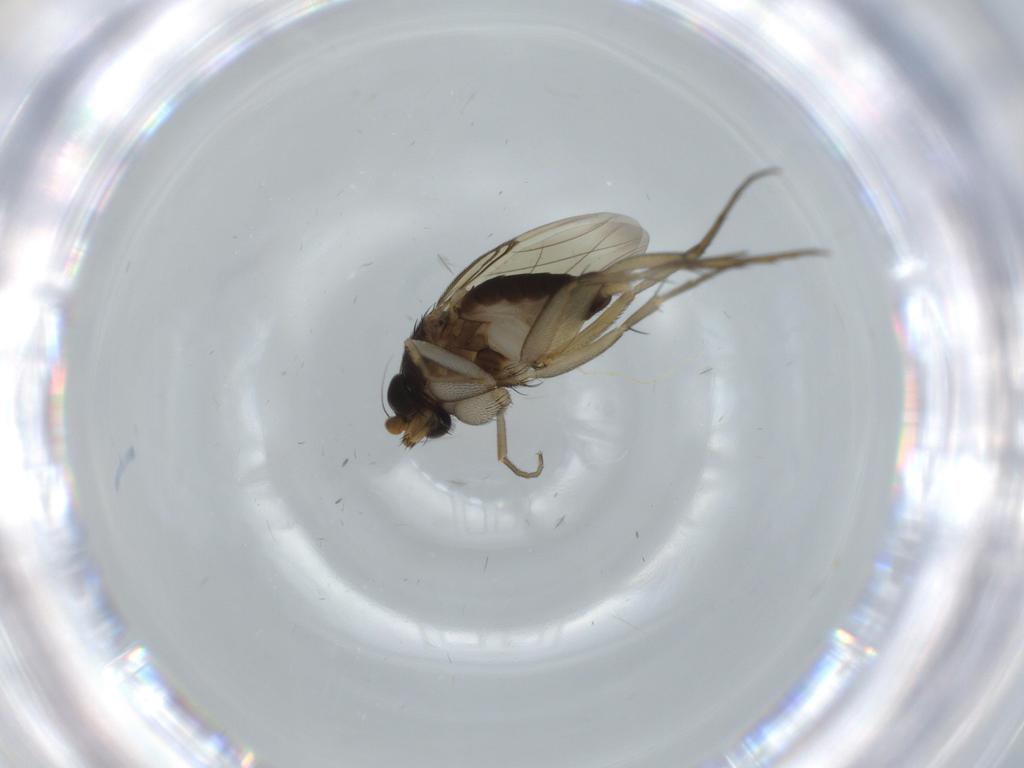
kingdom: Animalia
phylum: Arthropoda
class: Insecta
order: Diptera
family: Phoridae
